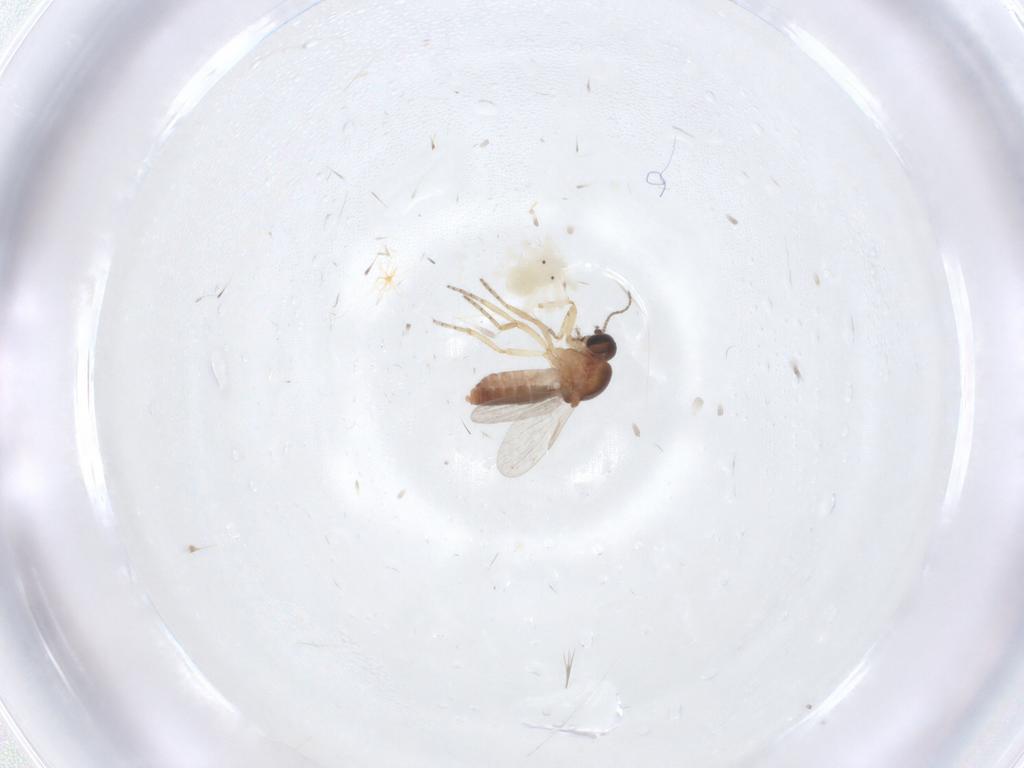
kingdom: Animalia
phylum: Arthropoda
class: Insecta
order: Diptera
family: Ceratopogonidae
